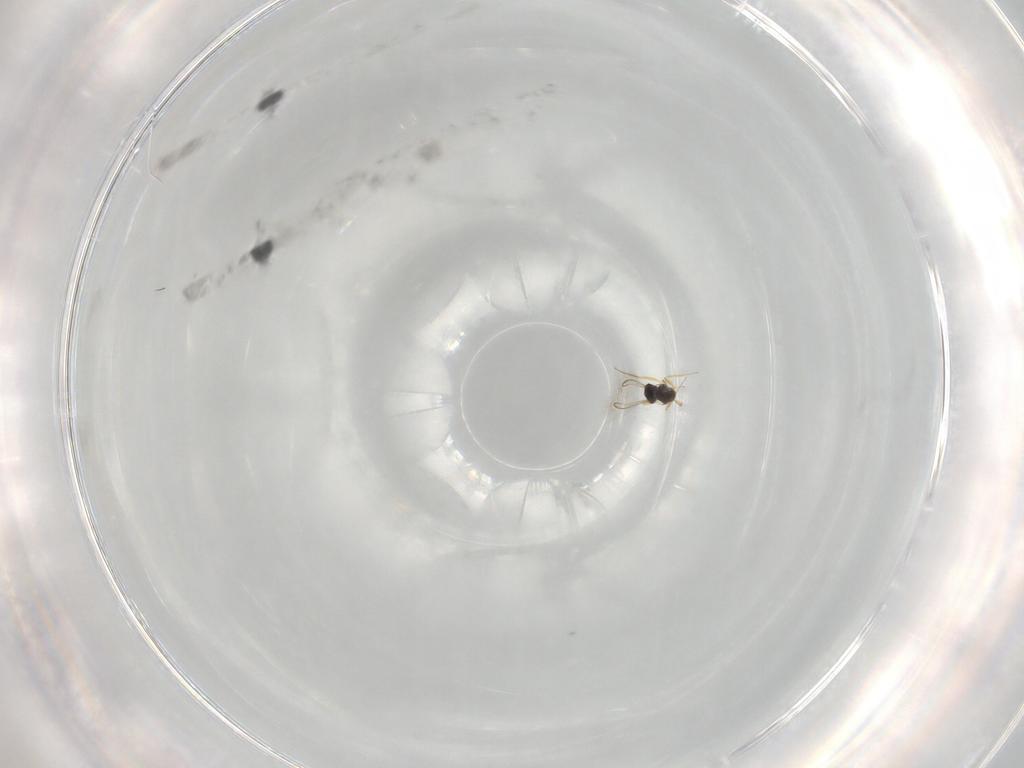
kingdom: Animalia
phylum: Arthropoda
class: Insecta
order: Hymenoptera
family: Mymaridae
